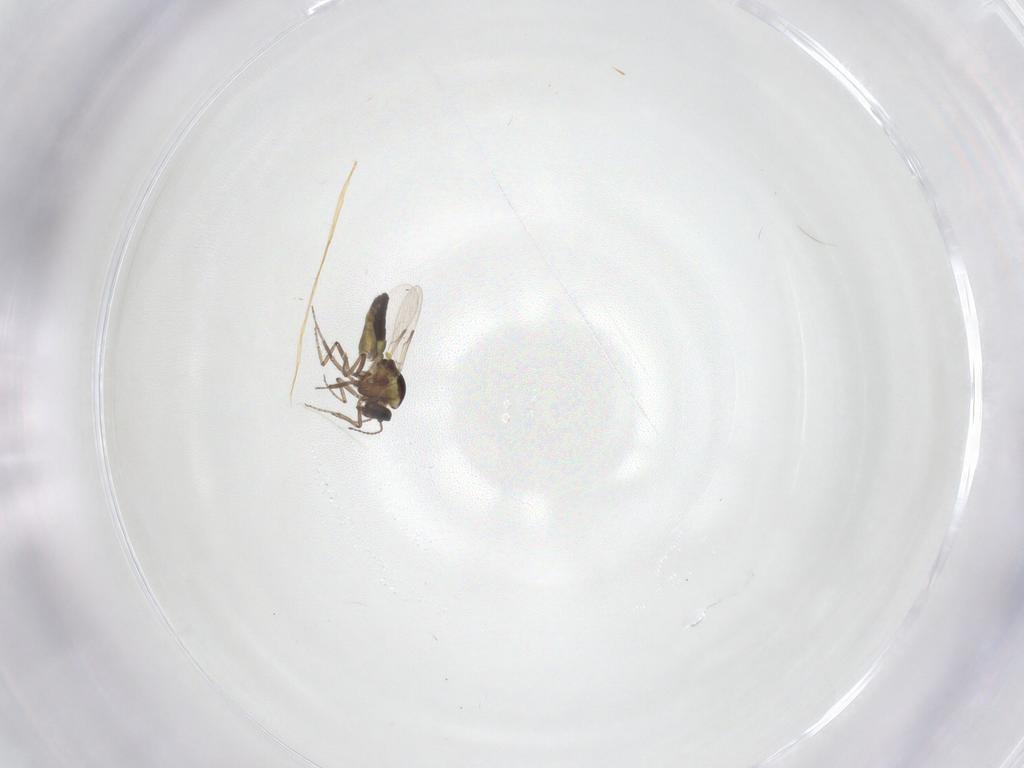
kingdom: Animalia
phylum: Arthropoda
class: Insecta
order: Diptera
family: Ceratopogonidae
